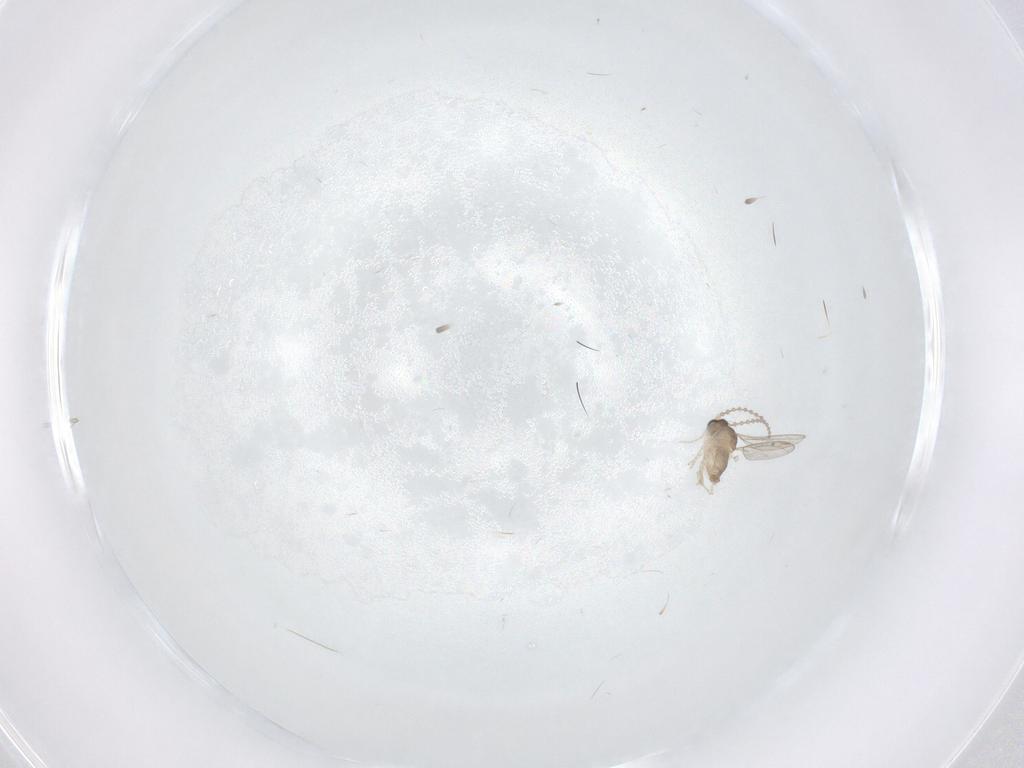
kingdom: Animalia
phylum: Arthropoda
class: Insecta
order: Diptera
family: Cecidomyiidae
